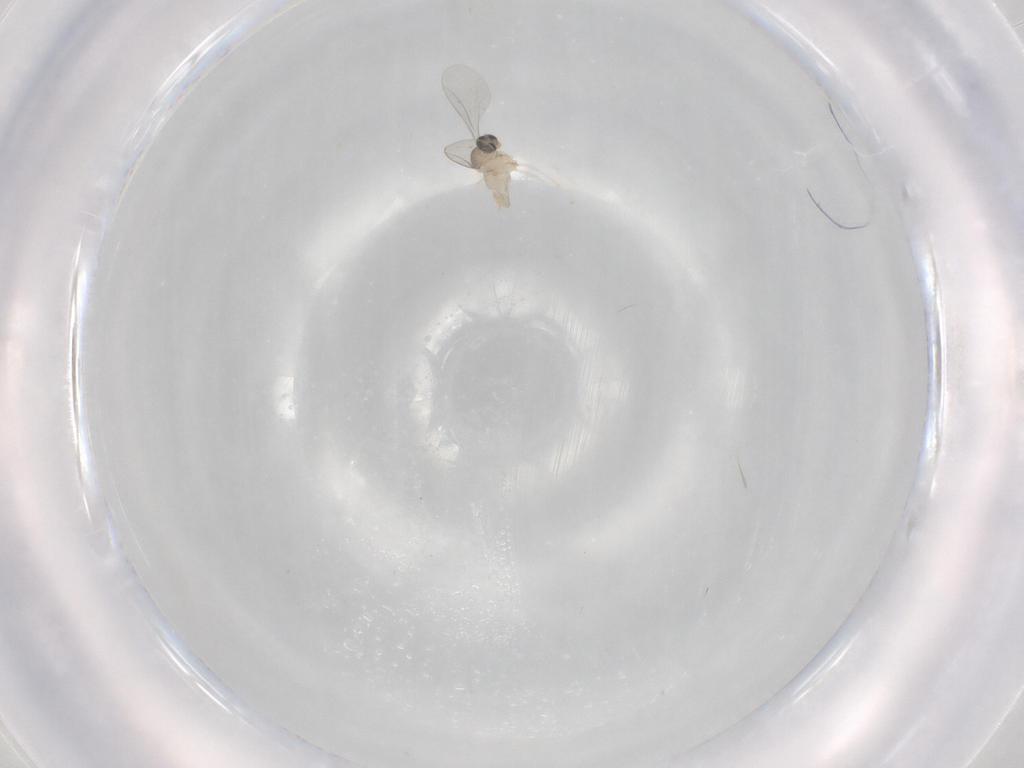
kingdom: Animalia
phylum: Arthropoda
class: Insecta
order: Diptera
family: Cecidomyiidae
